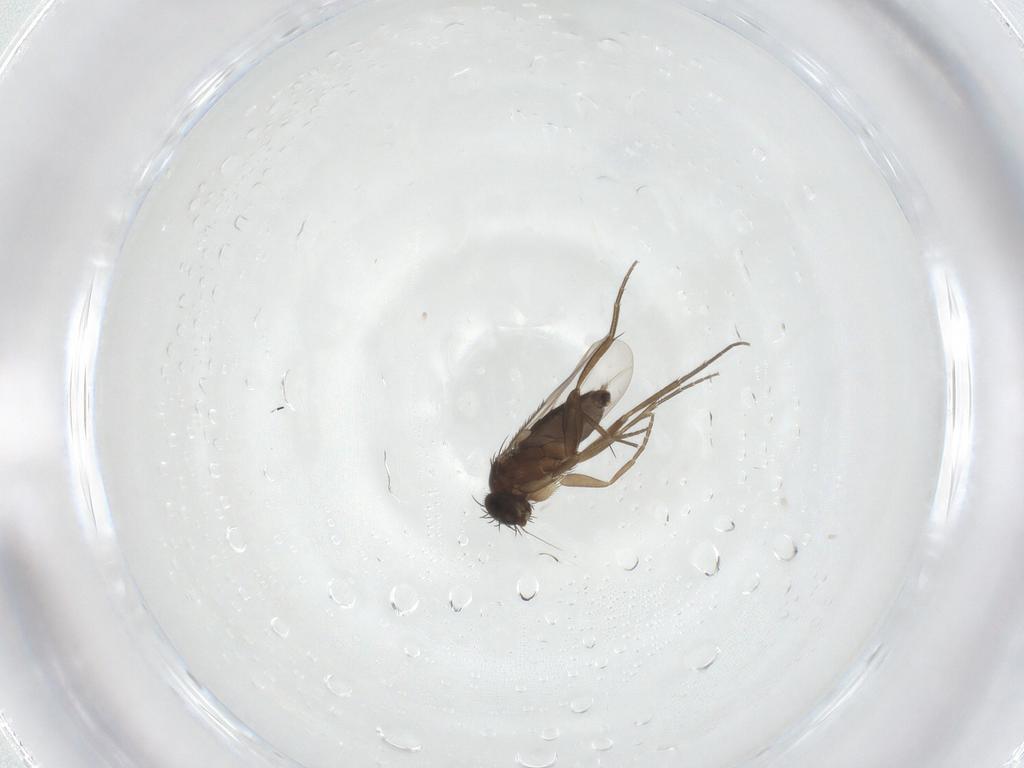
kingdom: Animalia
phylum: Arthropoda
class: Insecta
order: Diptera
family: Phoridae
